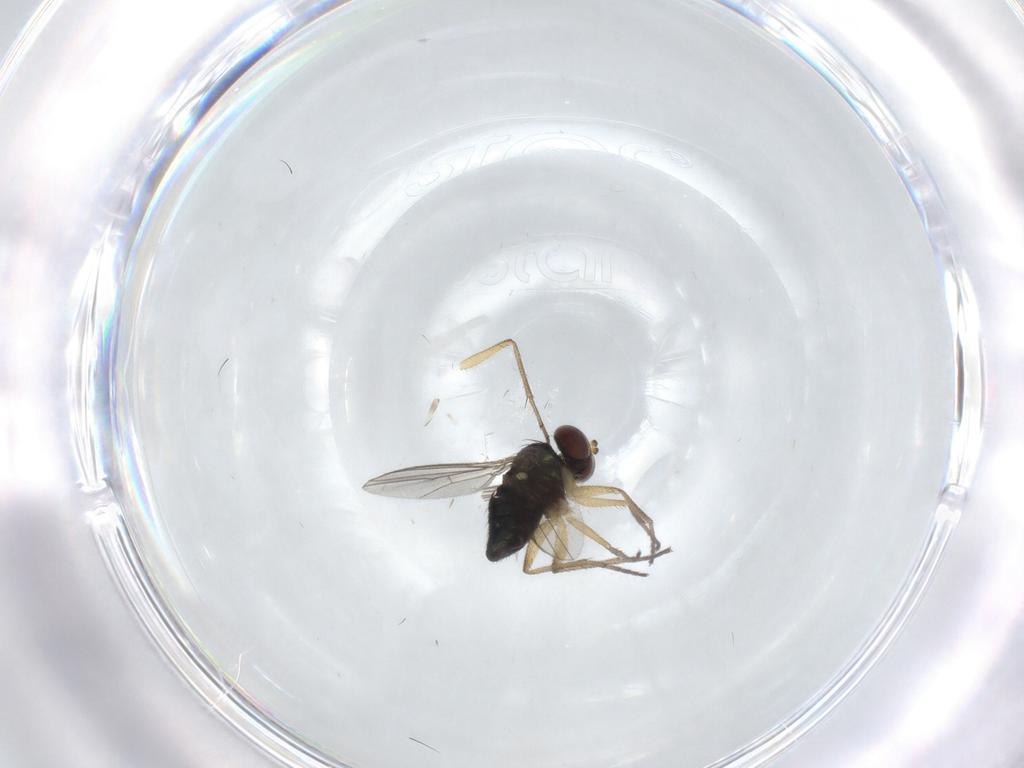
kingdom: Animalia
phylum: Arthropoda
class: Insecta
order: Diptera
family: Dolichopodidae
